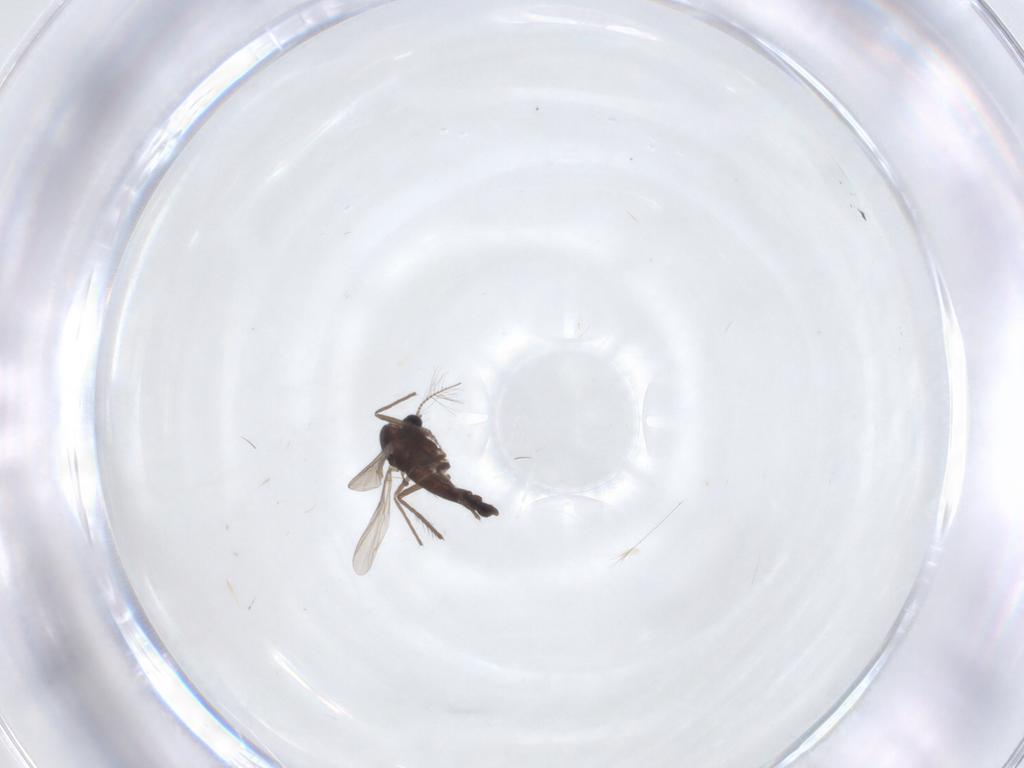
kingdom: Animalia
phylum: Arthropoda
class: Insecta
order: Diptera
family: Chironomidae
